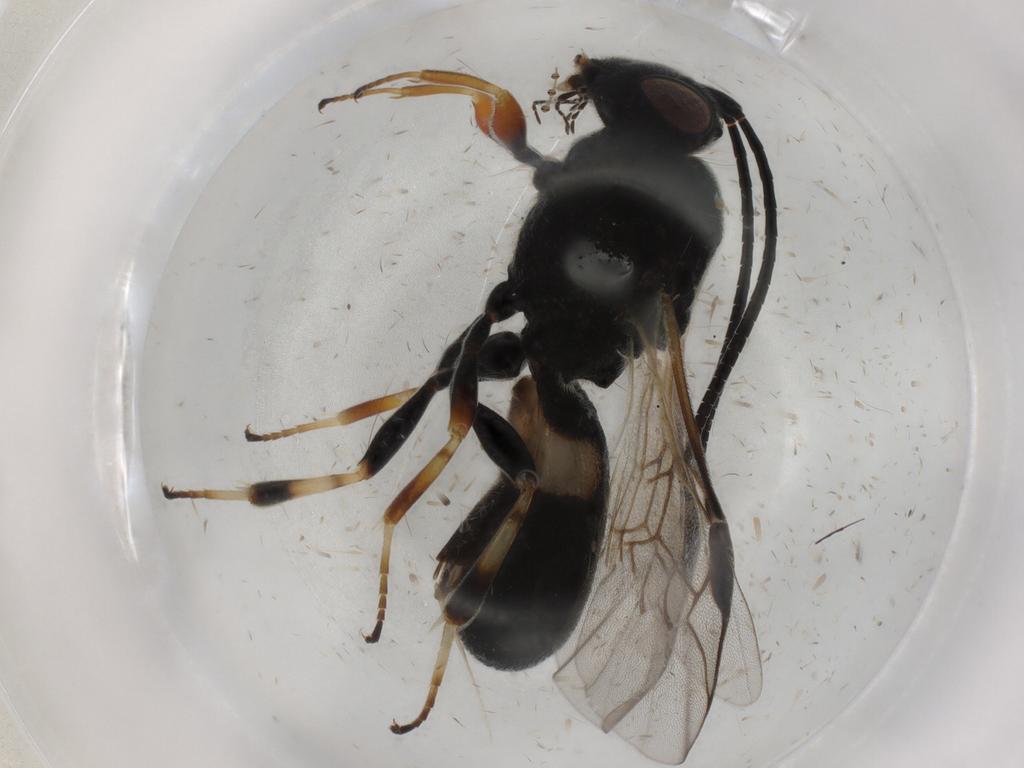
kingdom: Animalia
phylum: Arthropoda
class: Insecta
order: Hymenoptera
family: Braconidae
